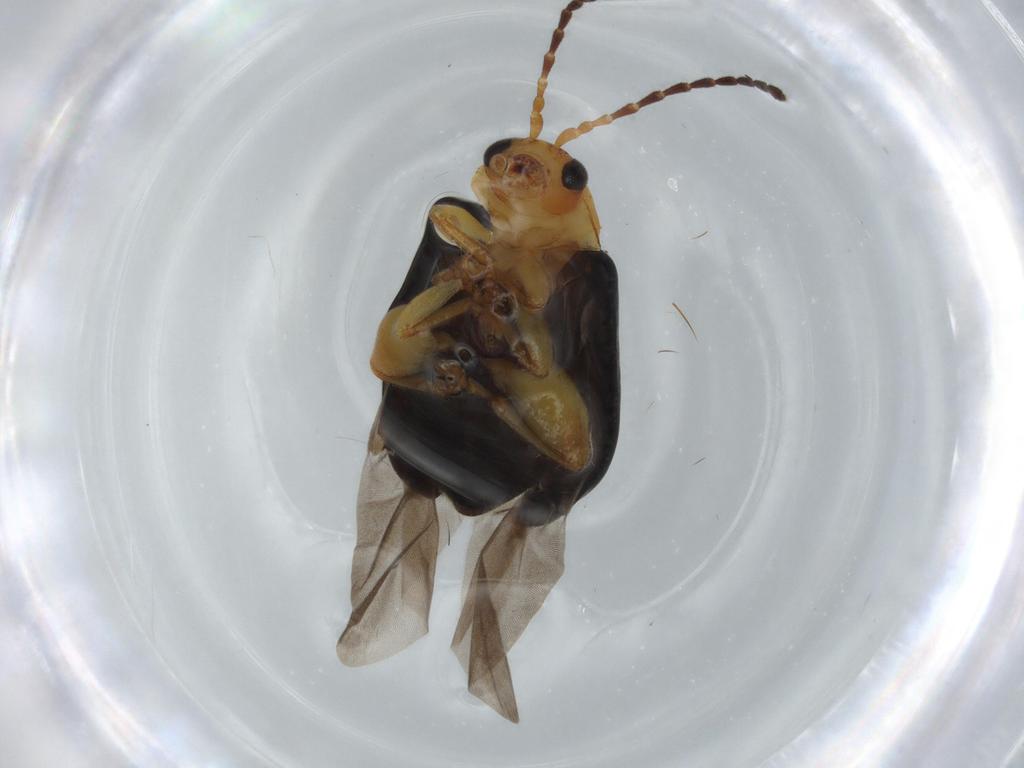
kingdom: Animalia
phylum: Arthropoda
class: Insecta
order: Coleoptera
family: Chrysomelidae
